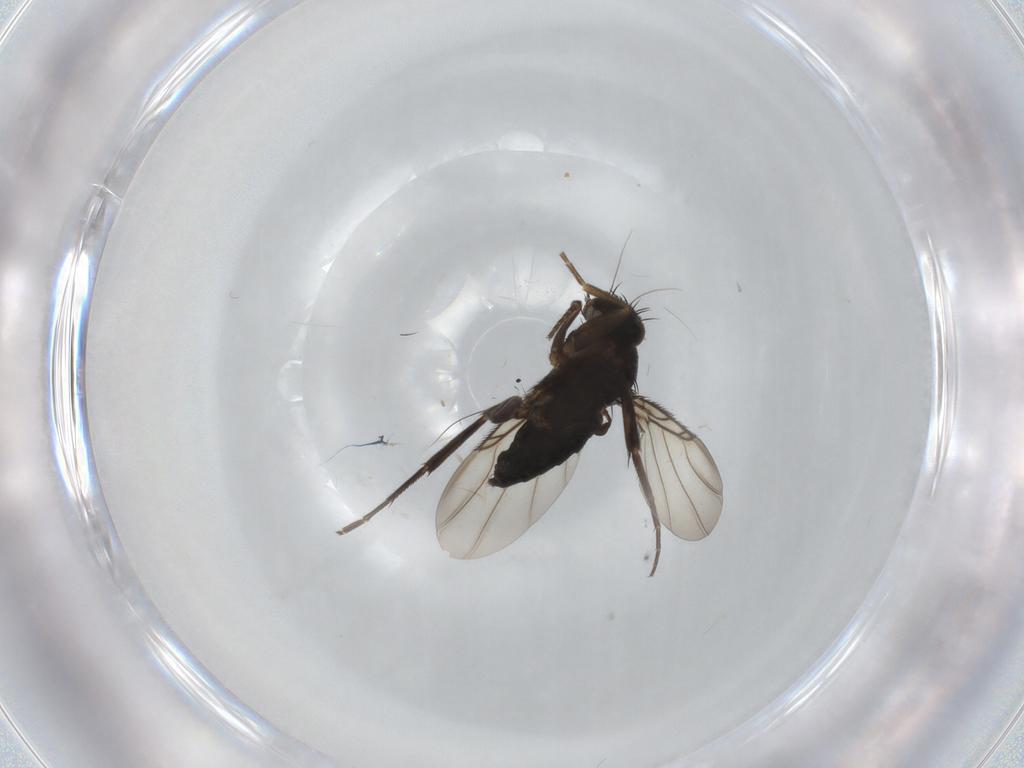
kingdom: Animalia
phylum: Arthropoda
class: Insecta
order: Diptera
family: Phoridae
